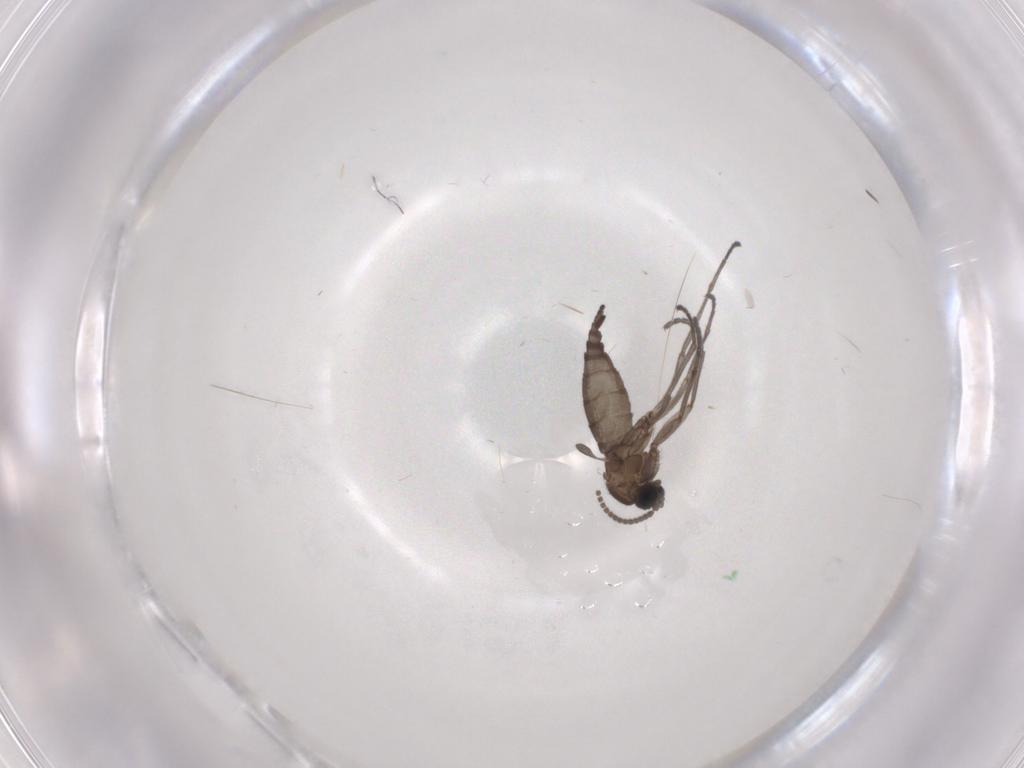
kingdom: Animalia
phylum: Arthropoda
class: Insecta
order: Diptera
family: Sciaridae
